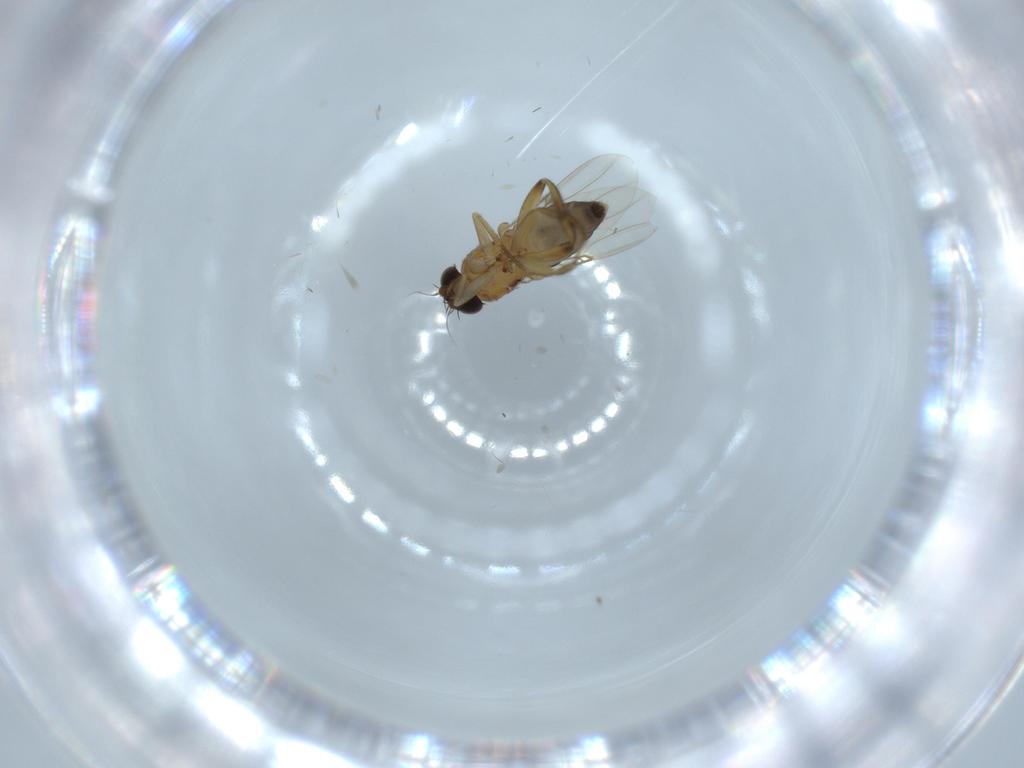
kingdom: Animalia
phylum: Arthropoda
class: Insecta
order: Diptera
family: Phoridae
